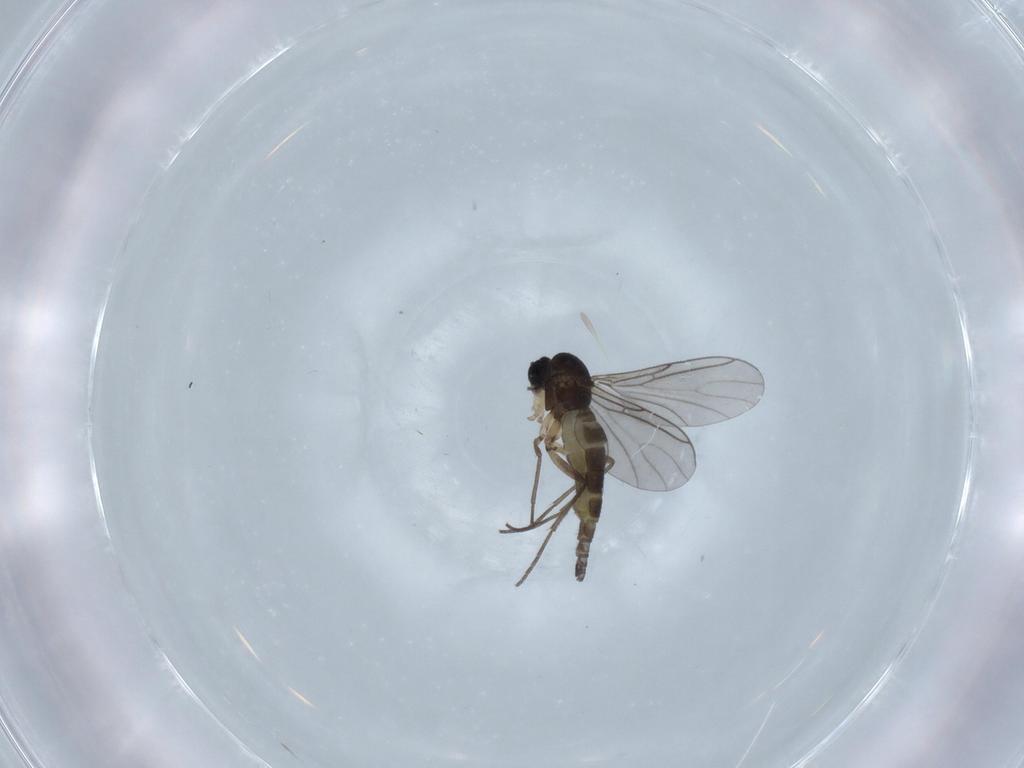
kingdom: Animalia
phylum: Arthropoda
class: Insecta
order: Diptera
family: Sciaridae
